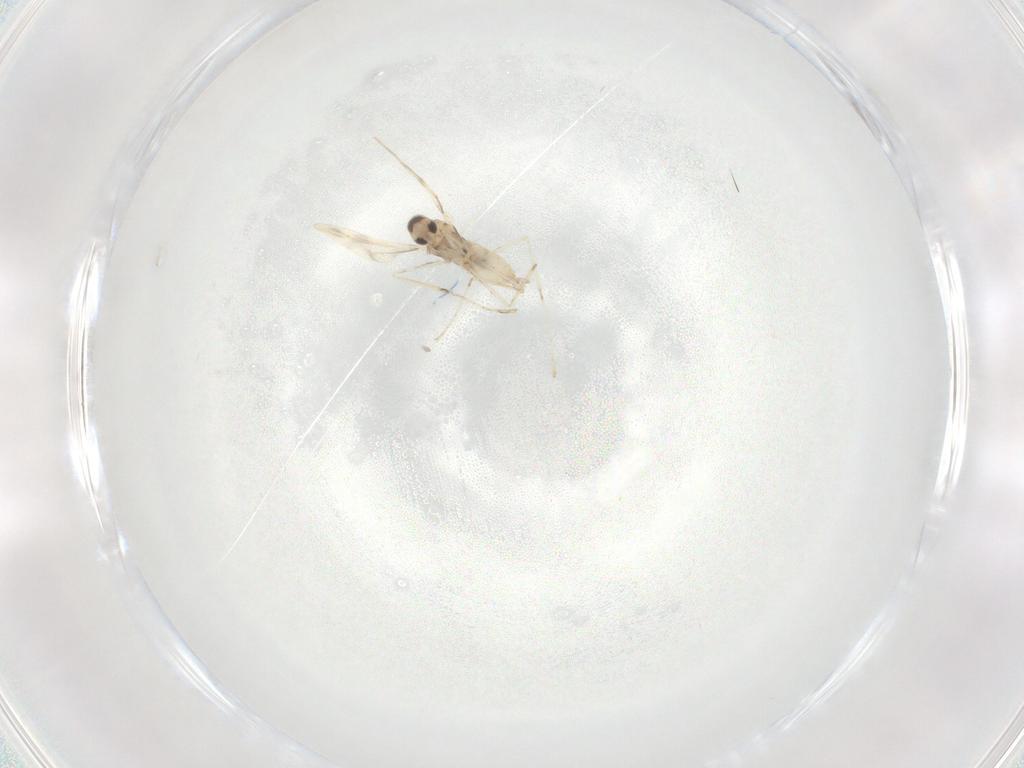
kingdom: Animalia
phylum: Arthropoda
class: Insecta
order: Diptera
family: Cecidomyiidae
